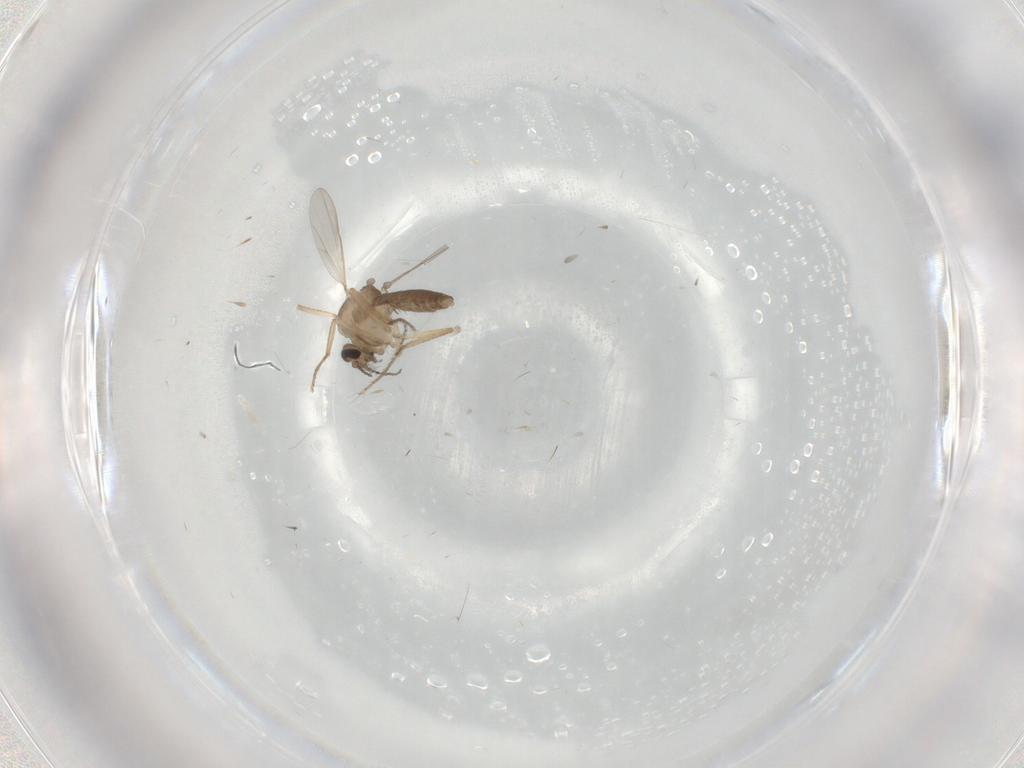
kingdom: Animalia
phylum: Arthropoda
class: Insecta
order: Diptera
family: Ceratopogonidae
